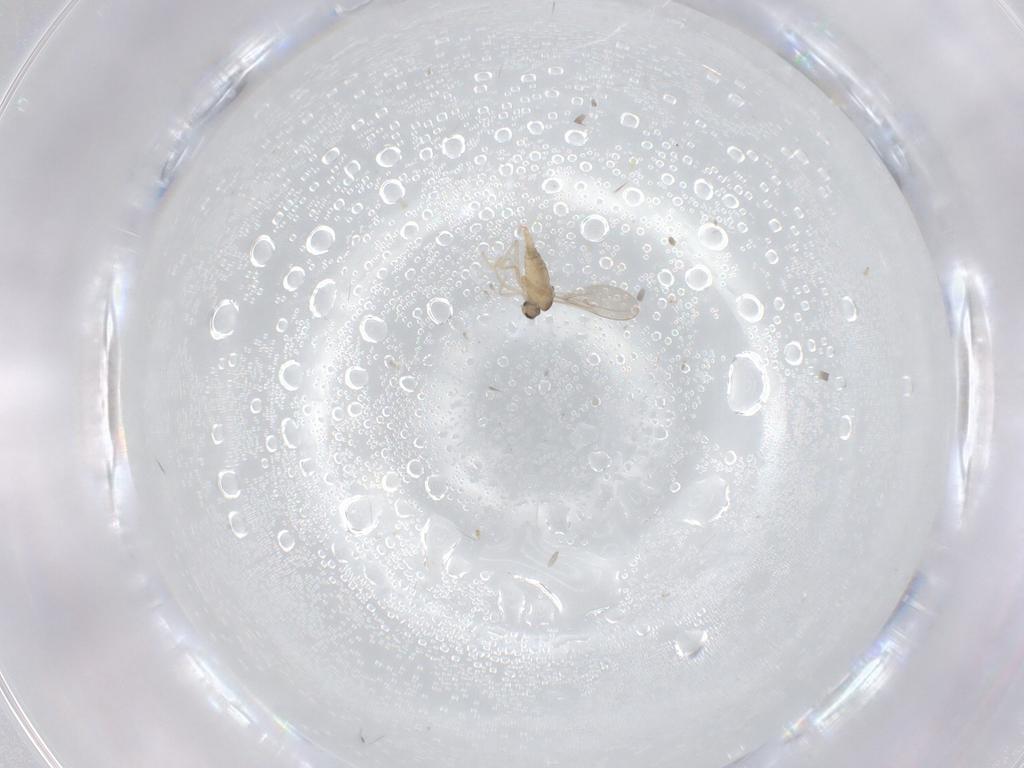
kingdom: Animalia
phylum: Arthropoda
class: Insecta
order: Diptera
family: Cecidomyiidae
